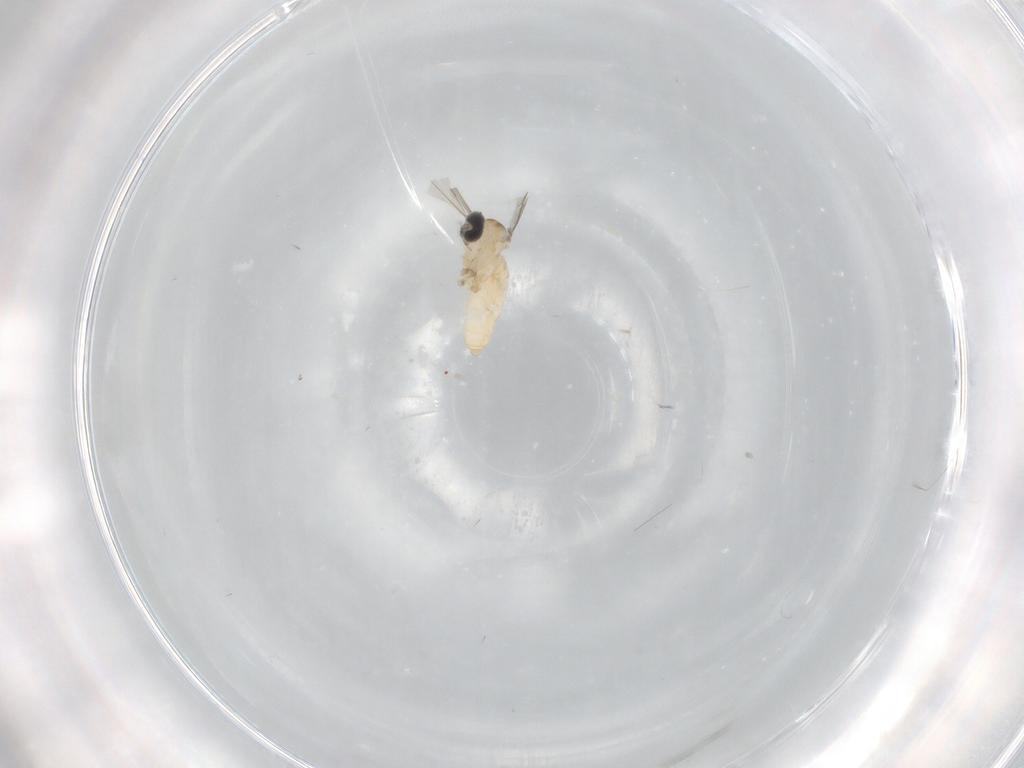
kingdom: Animalia
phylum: Arthropoda
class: Insecta
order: Diptera
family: Cecidomyiidae
